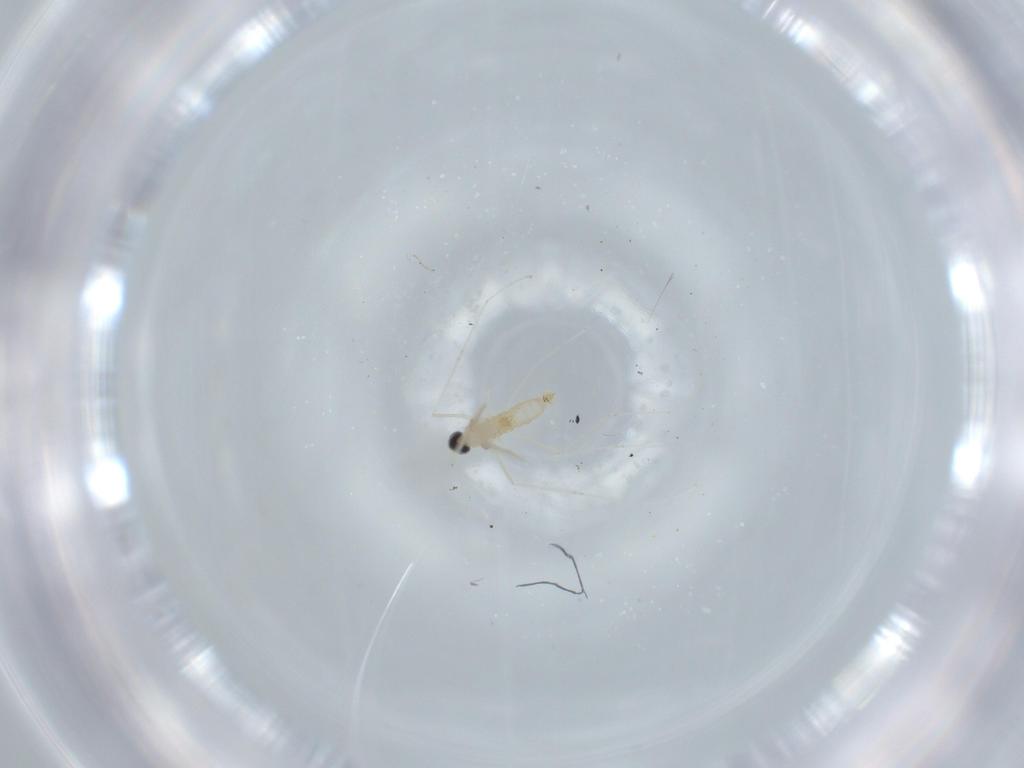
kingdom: Animalia
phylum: Arthropoda
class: Insecta
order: Diptera
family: Cecidomyiidae
